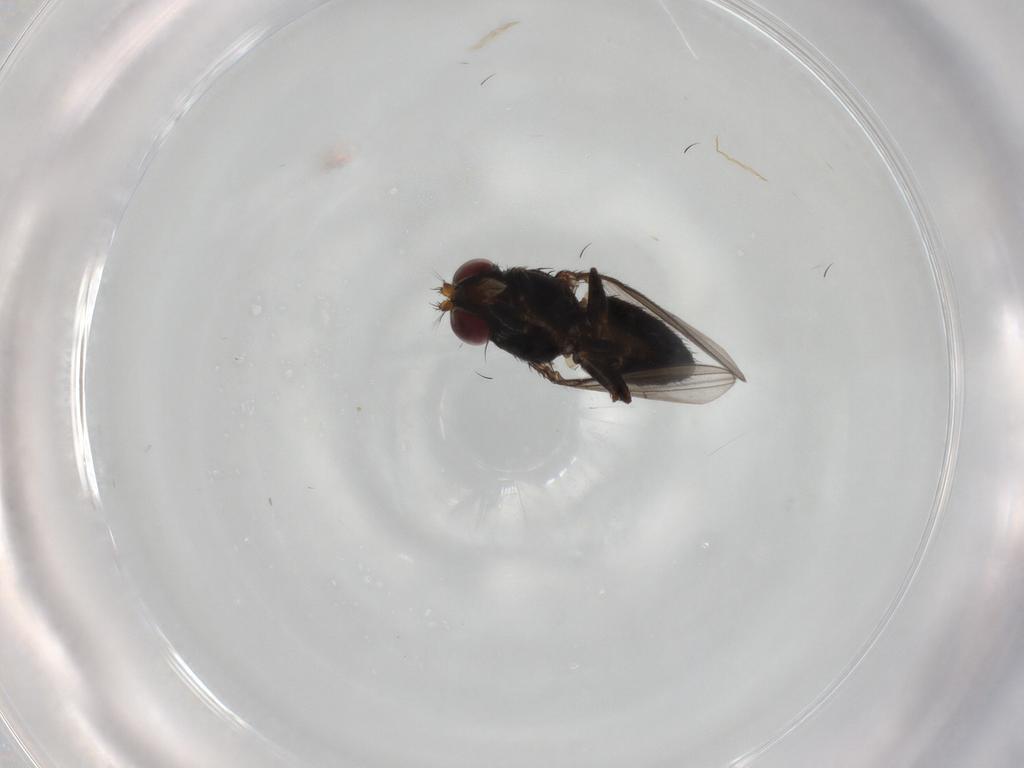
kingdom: Animalia
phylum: Arthropoda
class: Insecta
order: Diptera
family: Ephydridae
